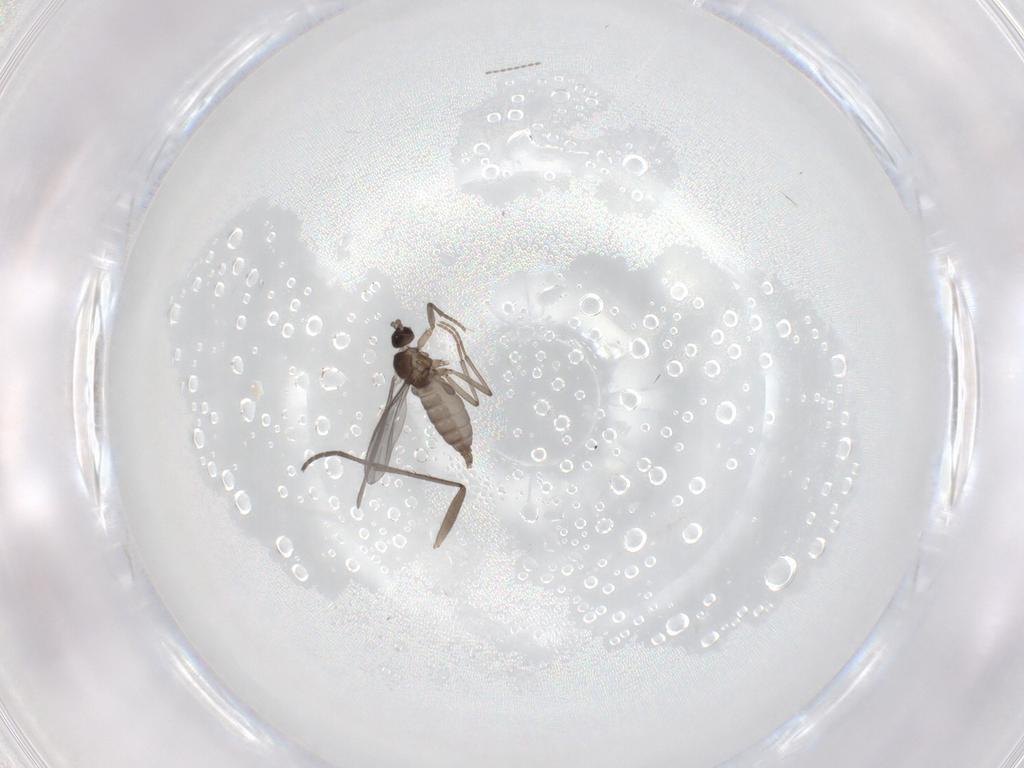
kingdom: Animalia
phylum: Arthropoda
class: Insecta
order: Diptera
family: Cecidomyiidae
